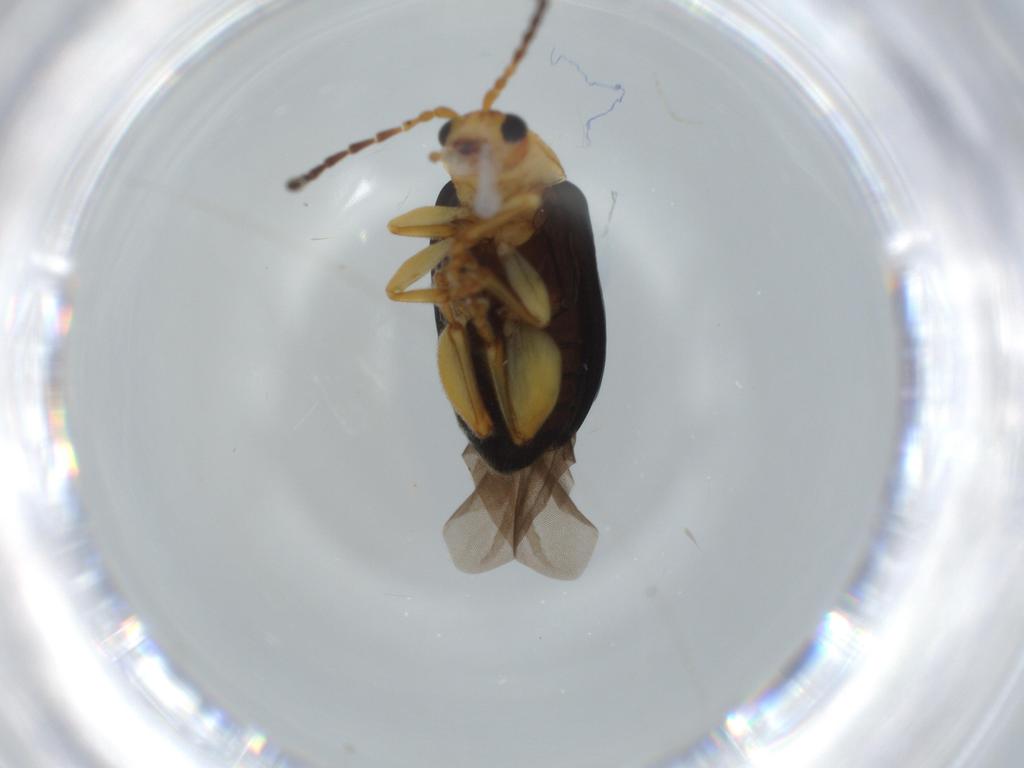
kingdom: Animalia
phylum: Arthropoda
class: Insecta
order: Coleoptera
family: Chrysomelidae
